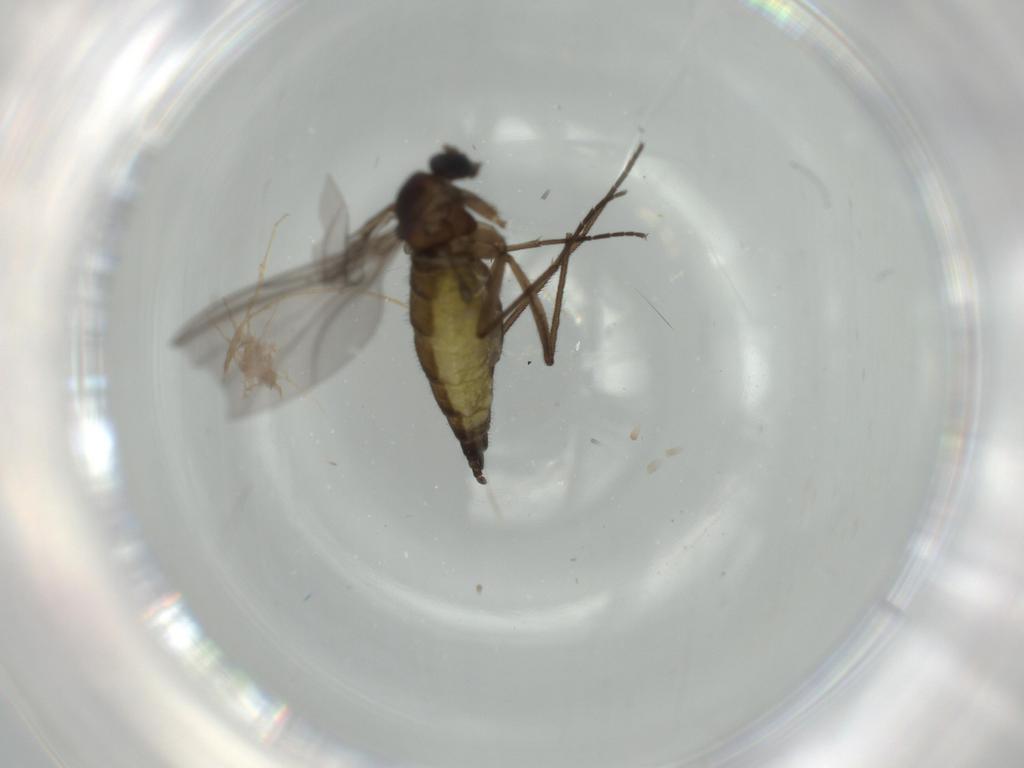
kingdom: Animalia
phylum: Arthropoda
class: Insecta
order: Diptera
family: Sciaridae
